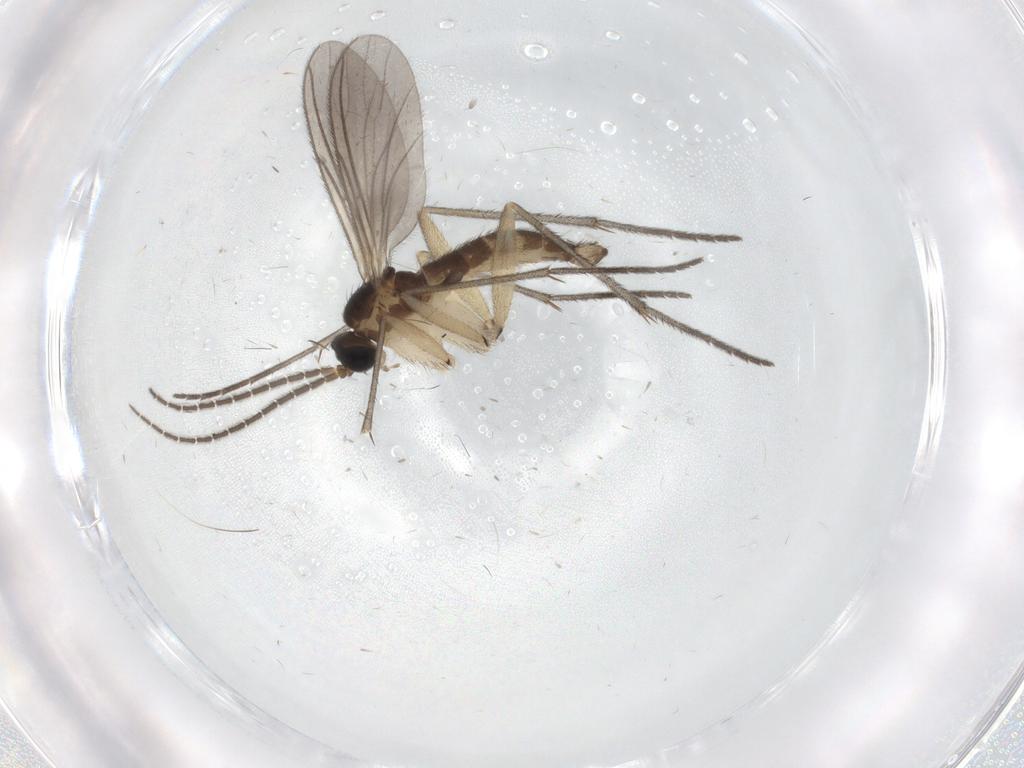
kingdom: Animalia
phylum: Arthropoda
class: Insecta
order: Diptera
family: Sciaridae
